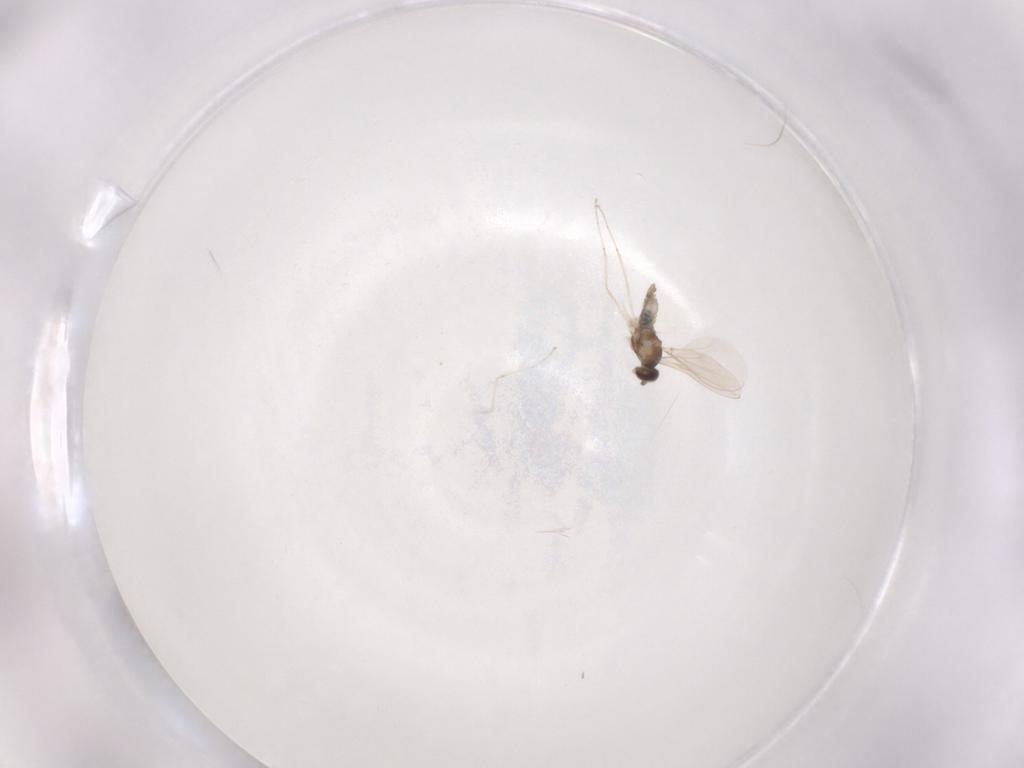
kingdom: Animalia
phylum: Arthropoda
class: Insecta
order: Diptera
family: Cecidomyiidae
